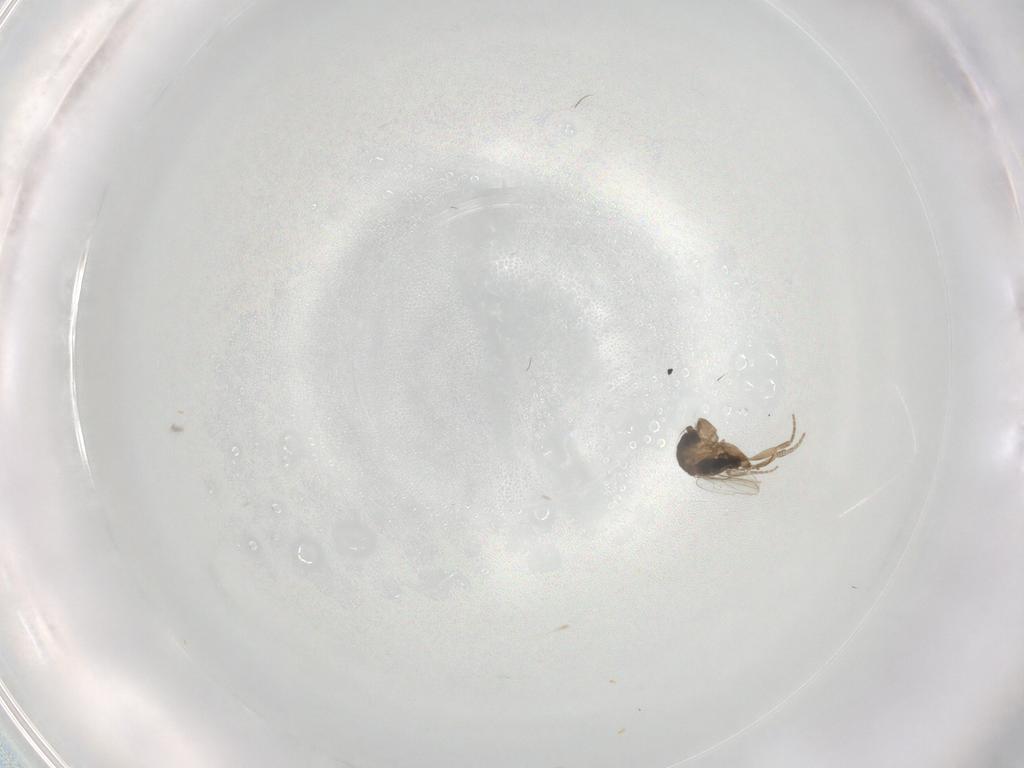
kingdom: Animalia
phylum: Arthropoda
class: Insecta
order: Diptera
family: Phoridae
